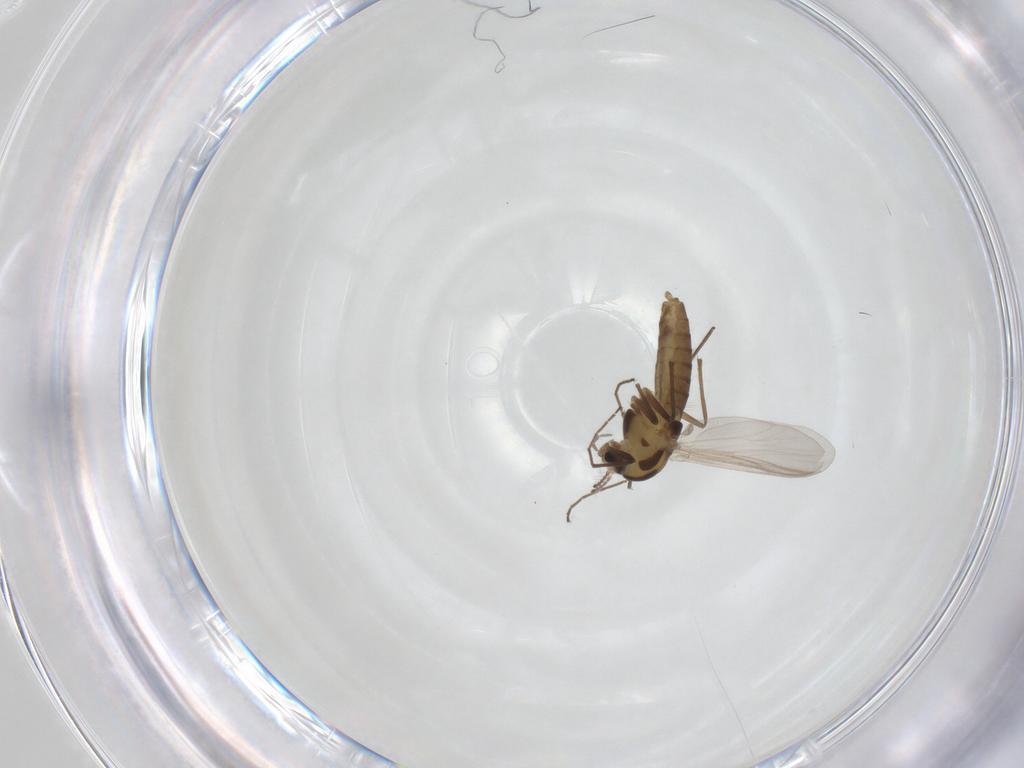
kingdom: Animalia
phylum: Arthropoda
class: Insecta
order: Diptera
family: Chironomidae
